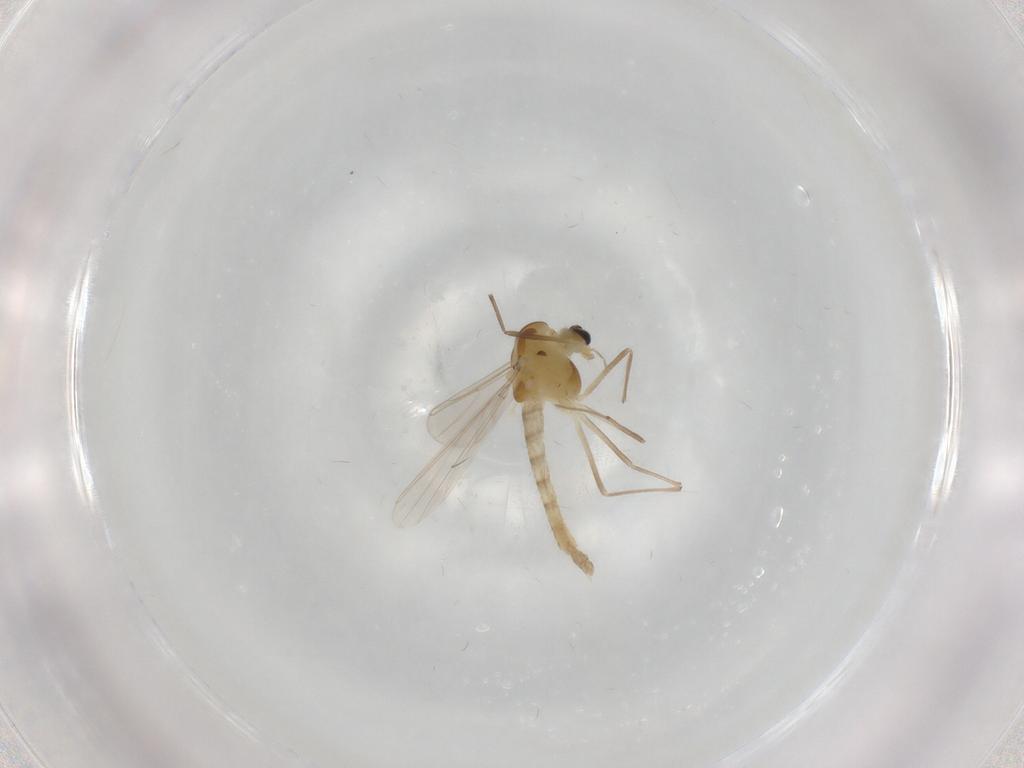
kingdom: Animalia
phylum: Arthropoda
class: Insecta
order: Diptera
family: Chironomidae
